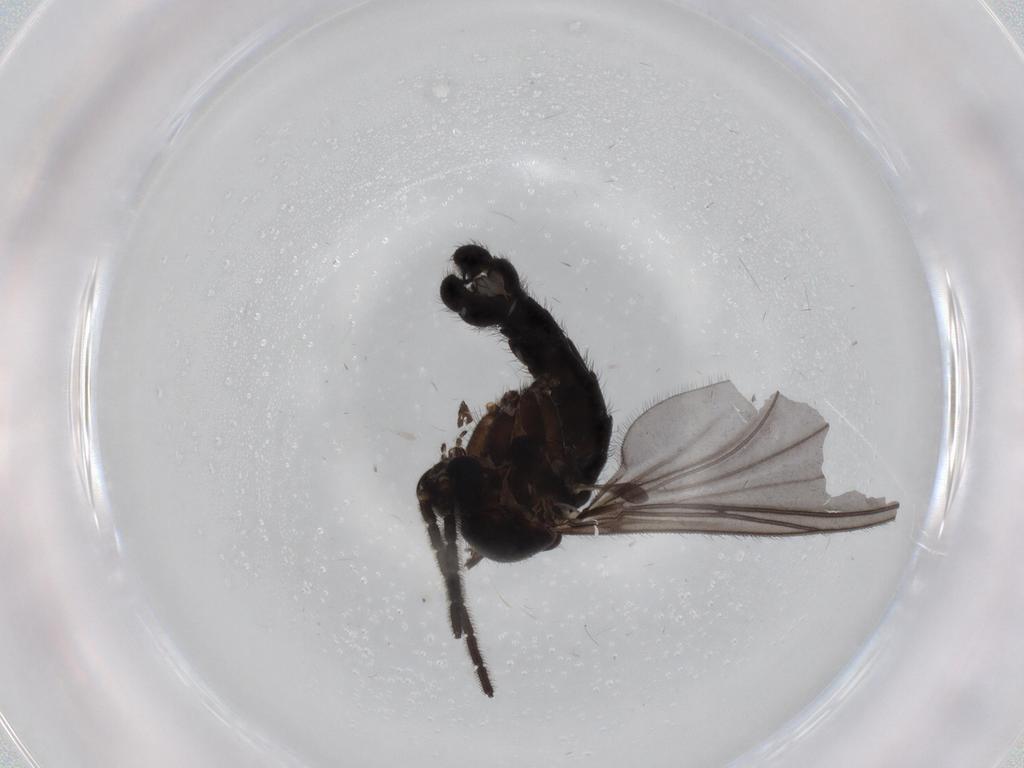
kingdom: Animalia
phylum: Arthropoda
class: Insecta
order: Diptera
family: Sciaridae
